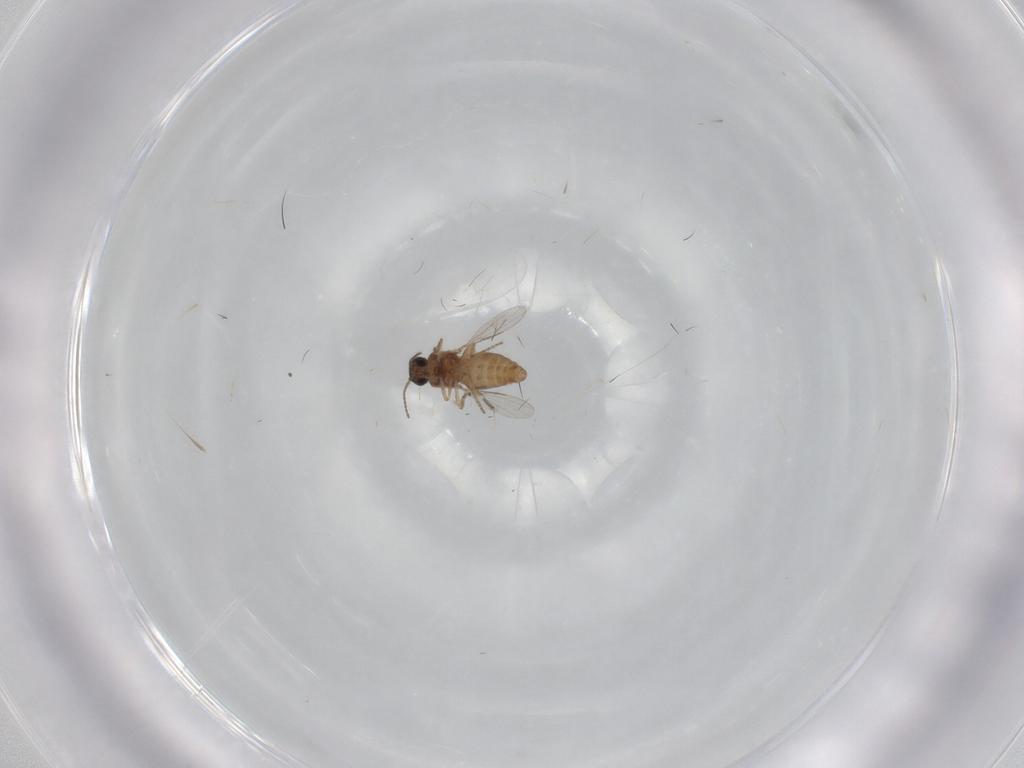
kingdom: Animalia
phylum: Arthropoda
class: Insecta
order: Diptera
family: Ceratopogonidae
